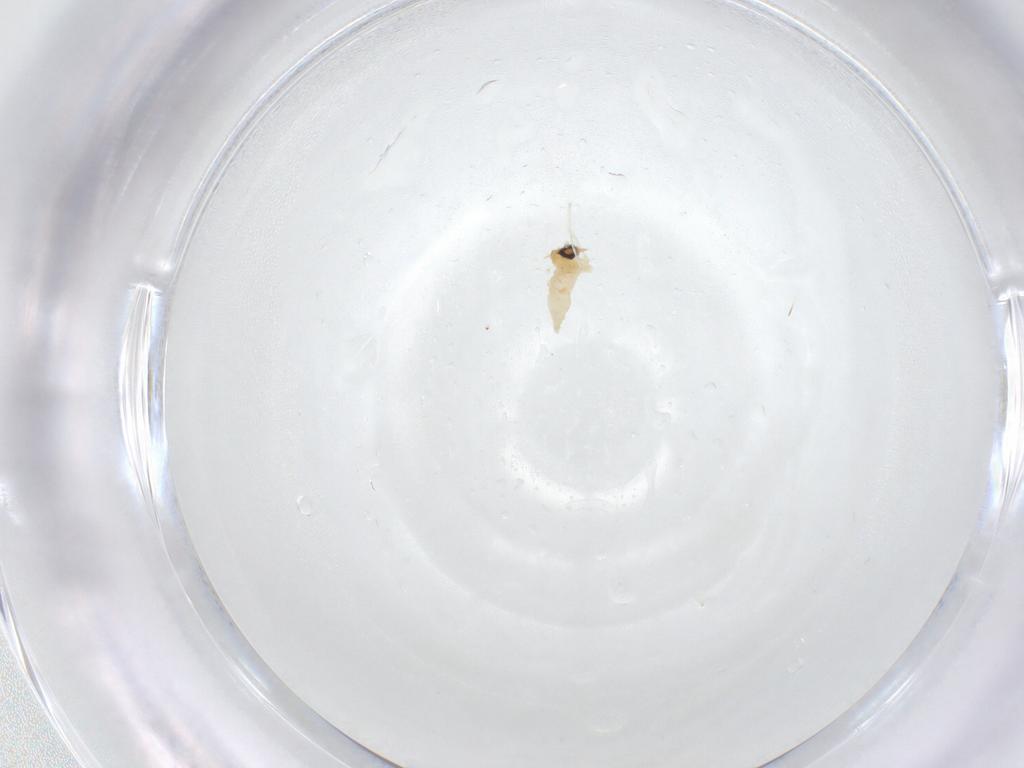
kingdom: Animalia
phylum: Arthropoda
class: Insecta
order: Diptera
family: Cecidomyiidae
